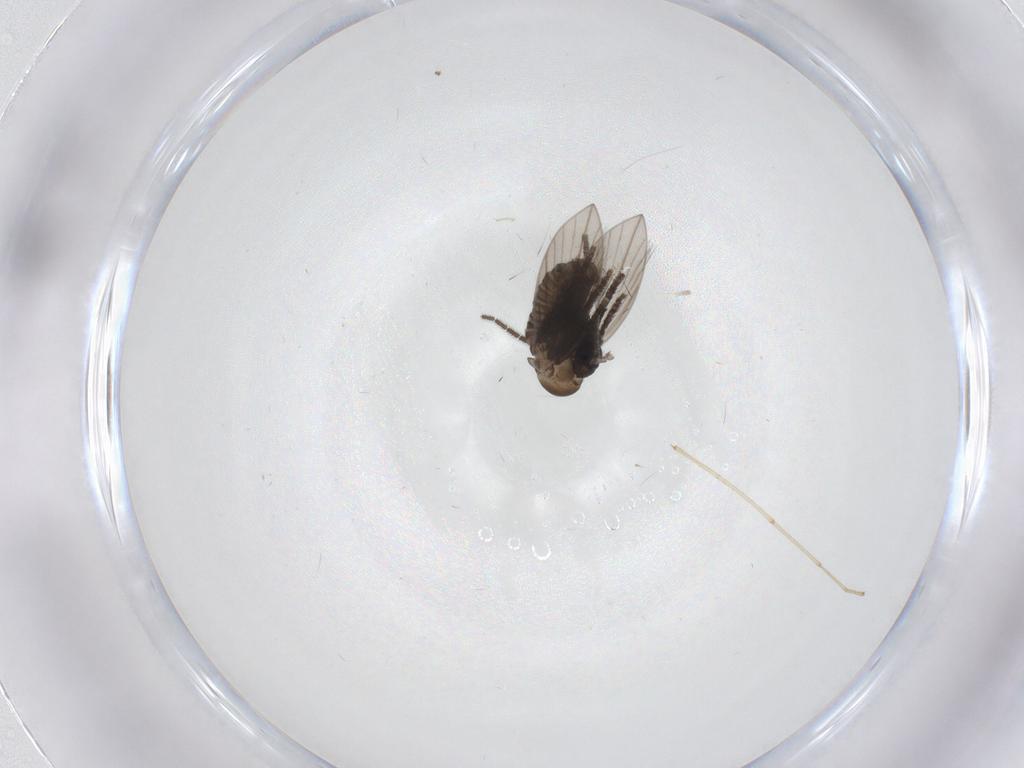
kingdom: Animalia
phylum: Arthropoda
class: Insecta
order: Diptera
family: Psychodidae
